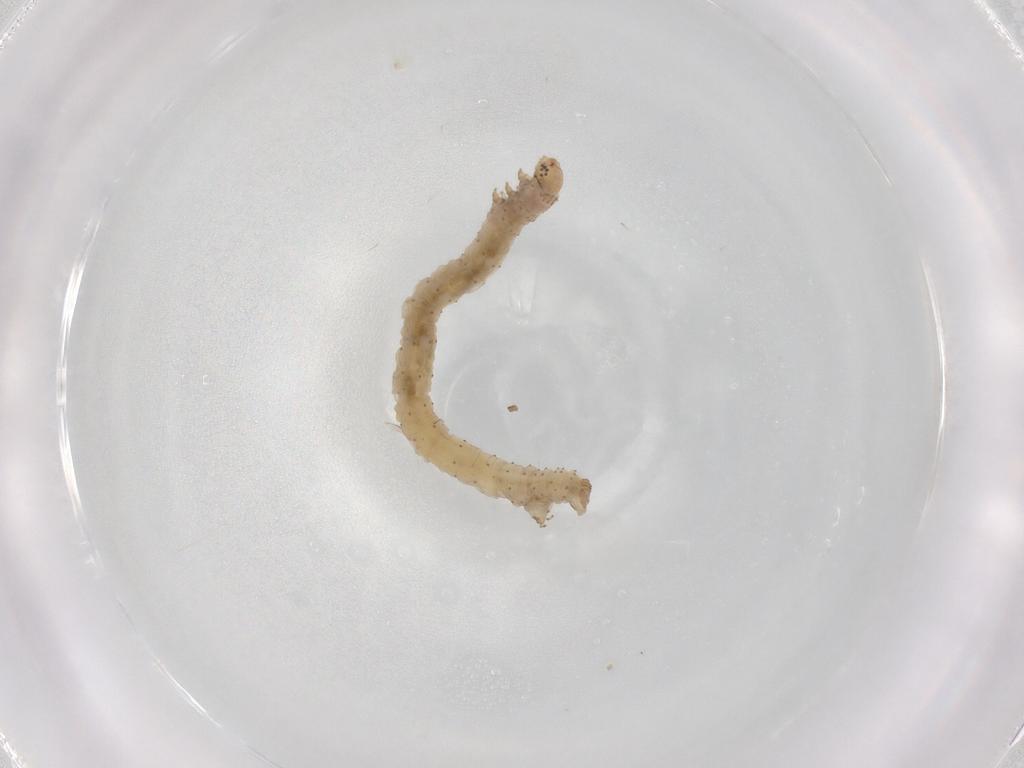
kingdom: Animalia
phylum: Arthropoda
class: Insecta
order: Lepidoptera
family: Geometridae
